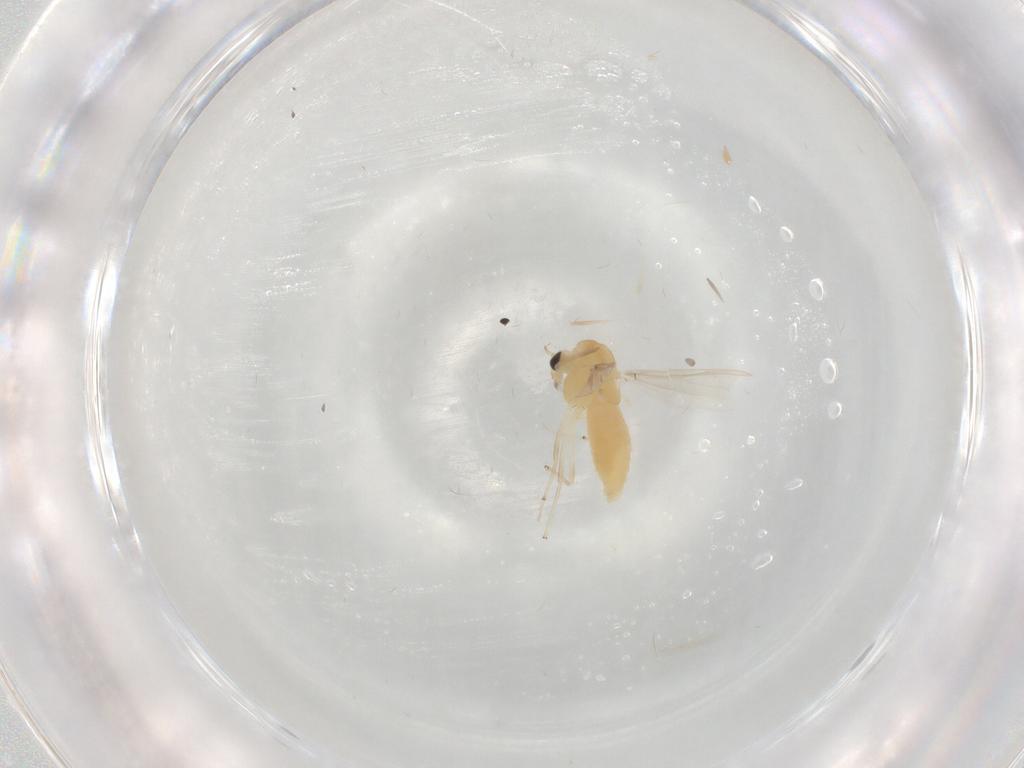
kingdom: Animalia
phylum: Arthropoda
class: Insecta
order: Diptera
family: Chironomidae
